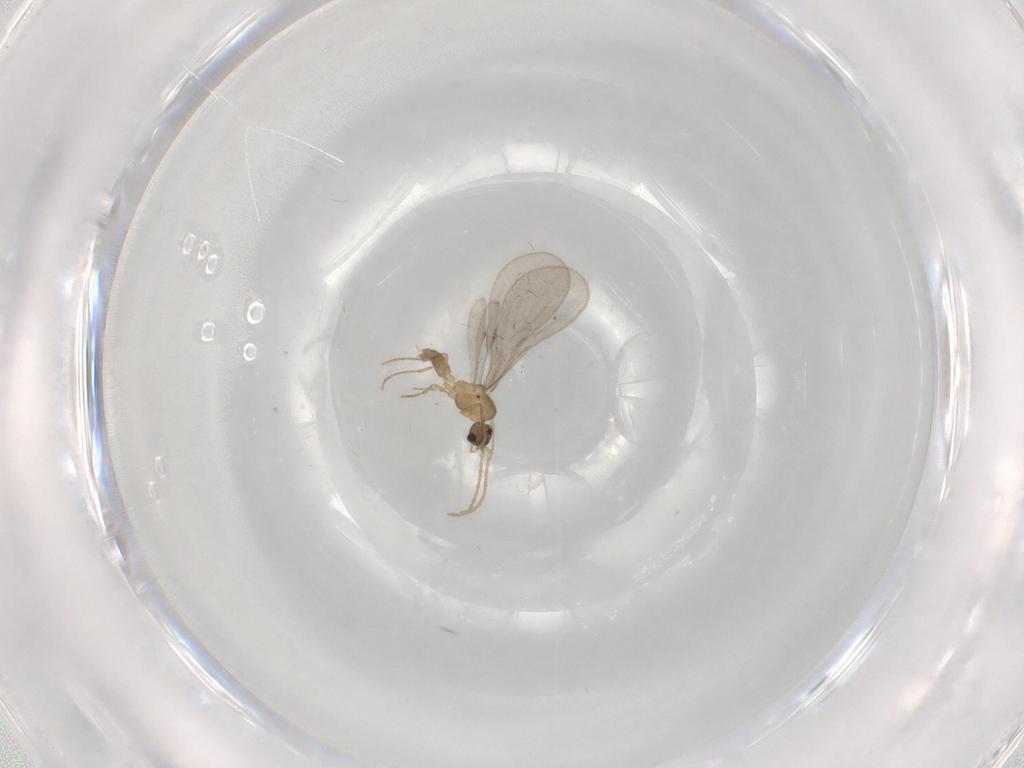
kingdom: Animalia
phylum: Arthropoda
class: Insecta
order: Hymenoptera
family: Formicidae
